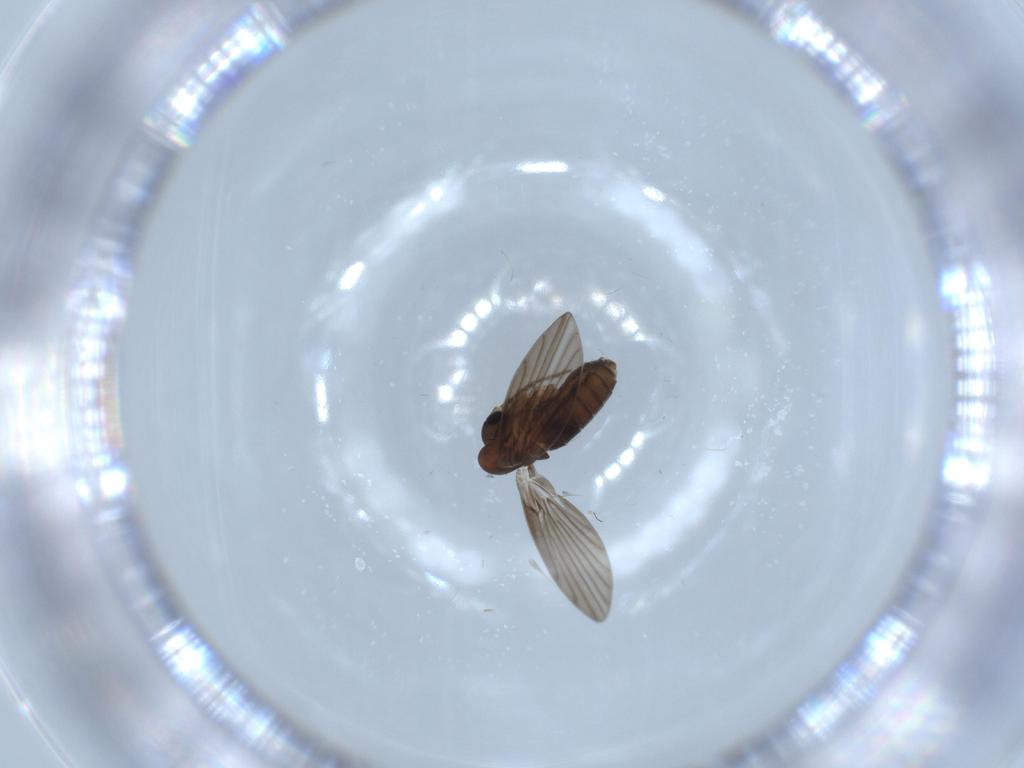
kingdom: Animalia
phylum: Arthropoda
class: Insecta
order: Diptera
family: Psychodidae
